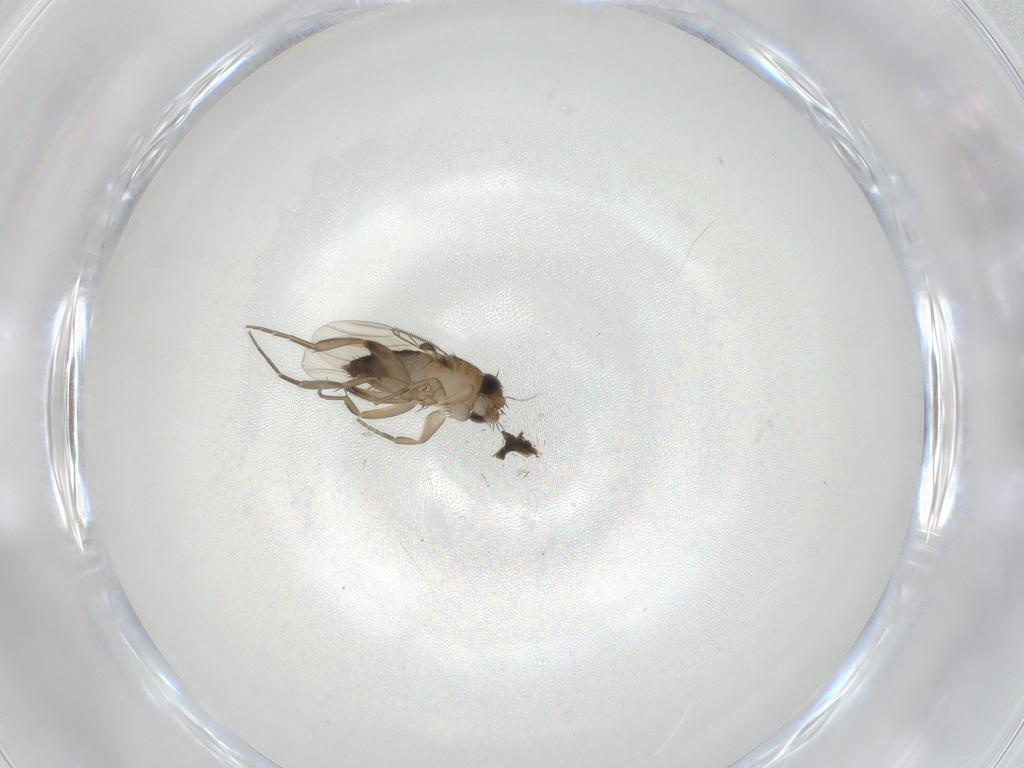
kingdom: Animalia
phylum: Arthropoda
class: Insecta
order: Diptera
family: Phoridae
